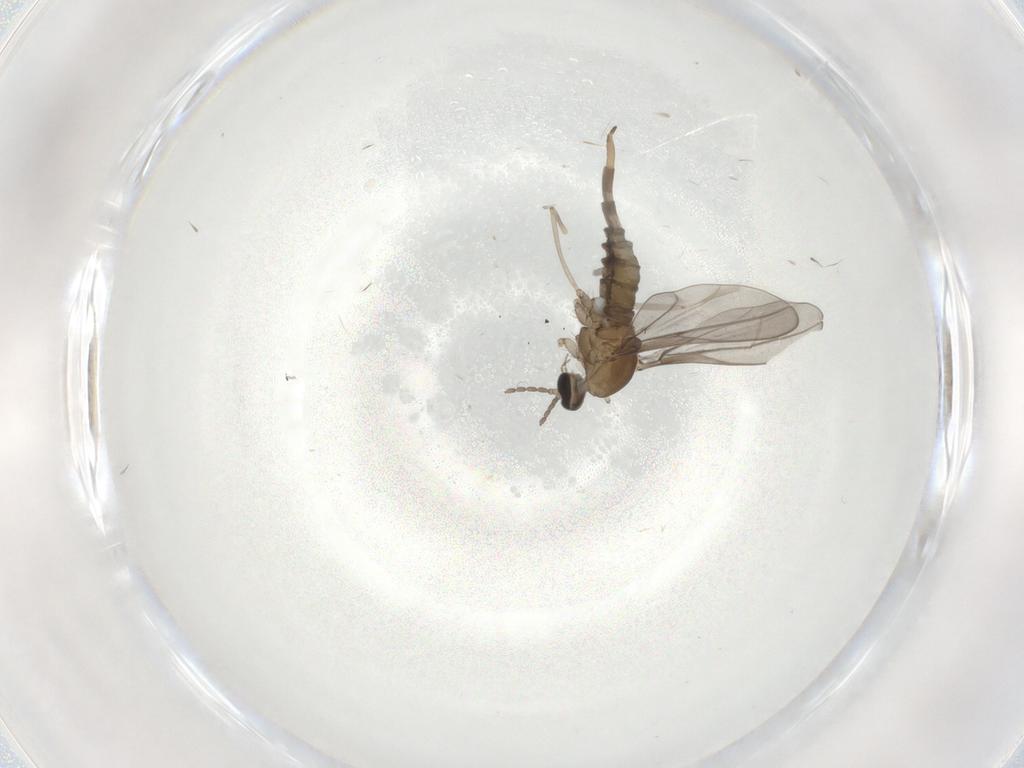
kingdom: Animalia
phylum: Arthropoda
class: Insecta
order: Diptera
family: Cecidomyiidae
